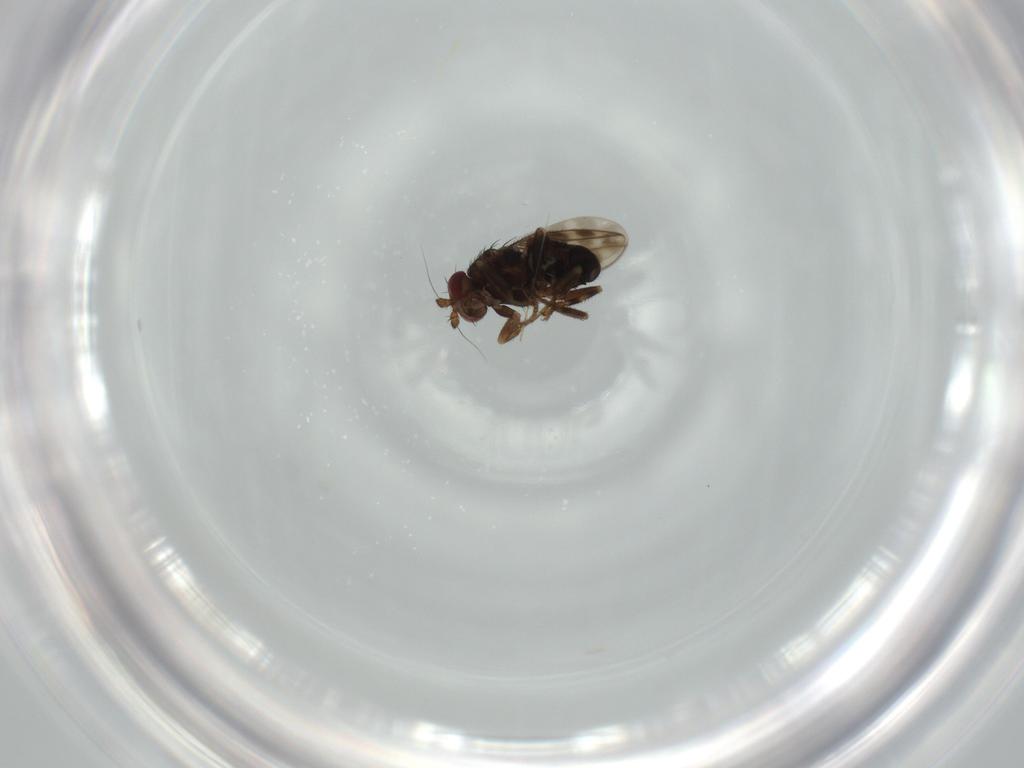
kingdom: Animalia
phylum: Arthropoda
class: Insecta
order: Diptera
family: Sphaeroceridae
